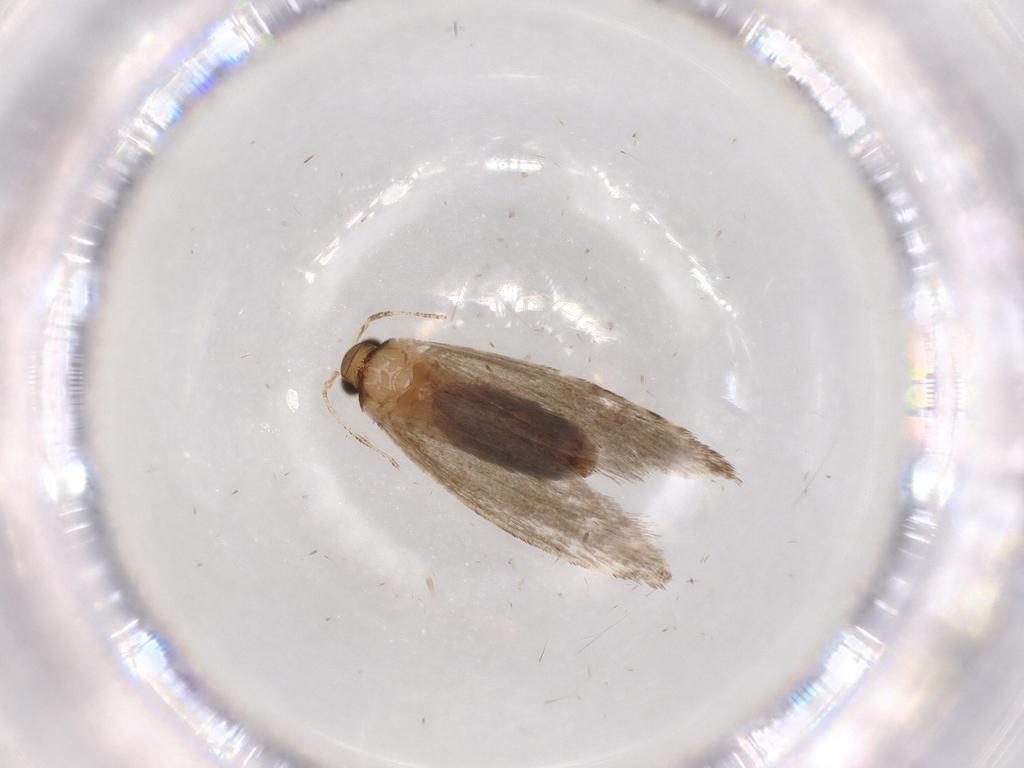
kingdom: Animalia
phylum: Arthropoda
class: Insecta
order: Lepidoptera
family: Tineidae
